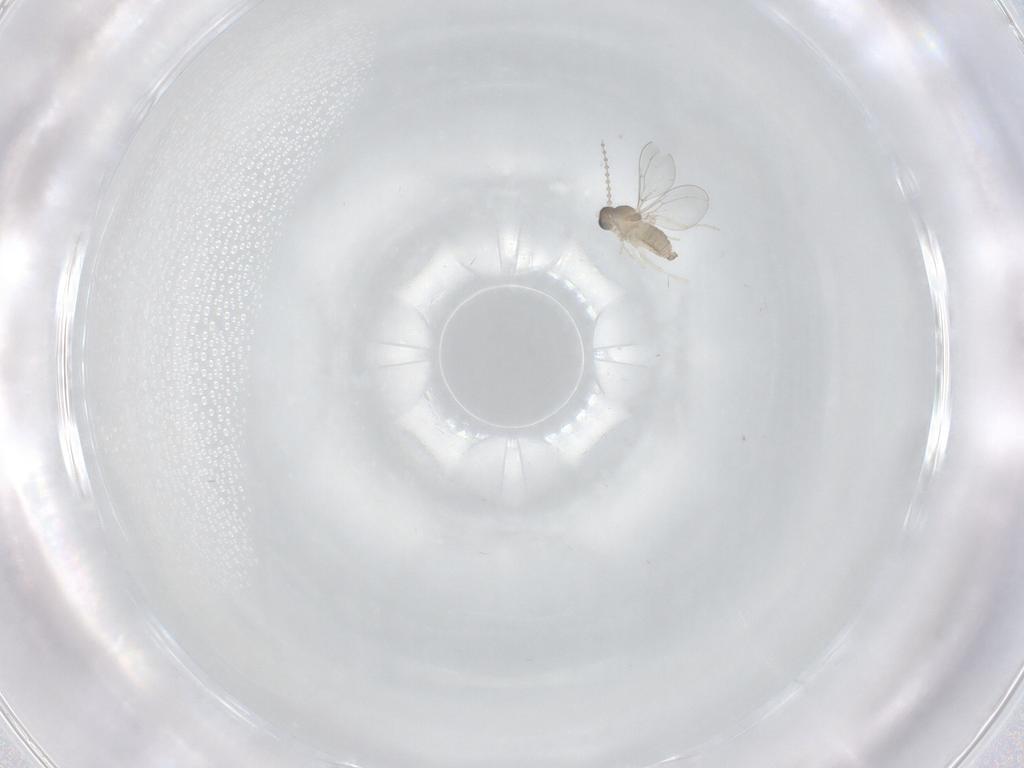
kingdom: Animalia
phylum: Arthropoda
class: Insecta
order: Diptera
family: Cecidomyiidae
